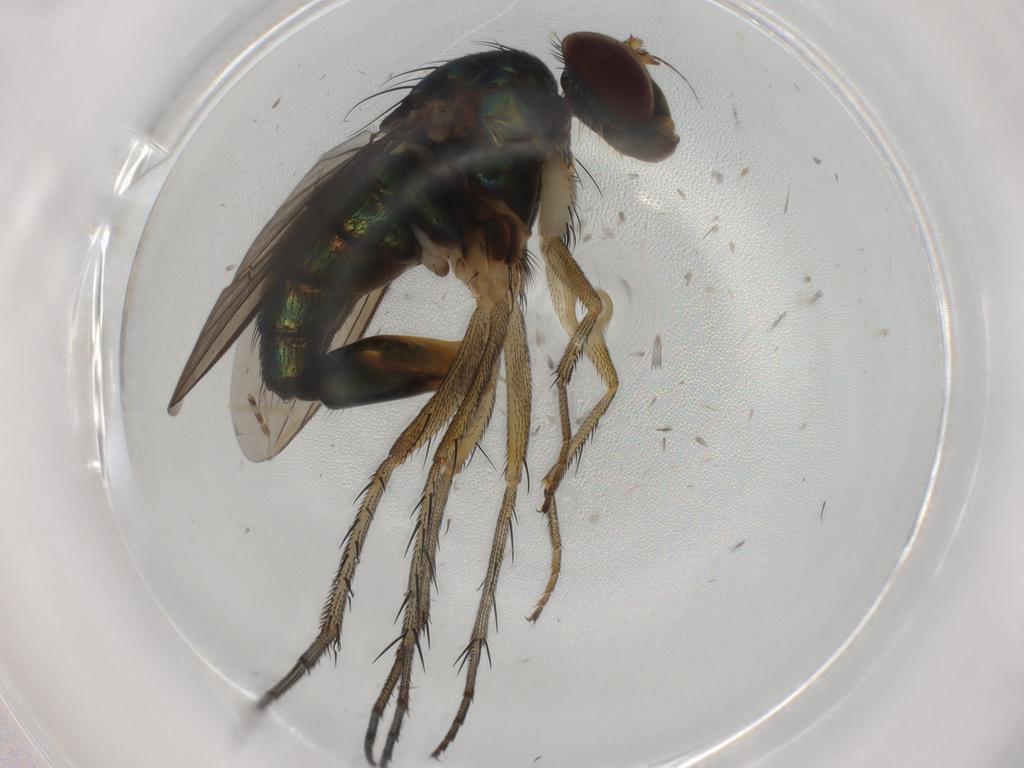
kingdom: Animalia
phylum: Arthropoda
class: Insecta
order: Diptera
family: Dolichopodidae
